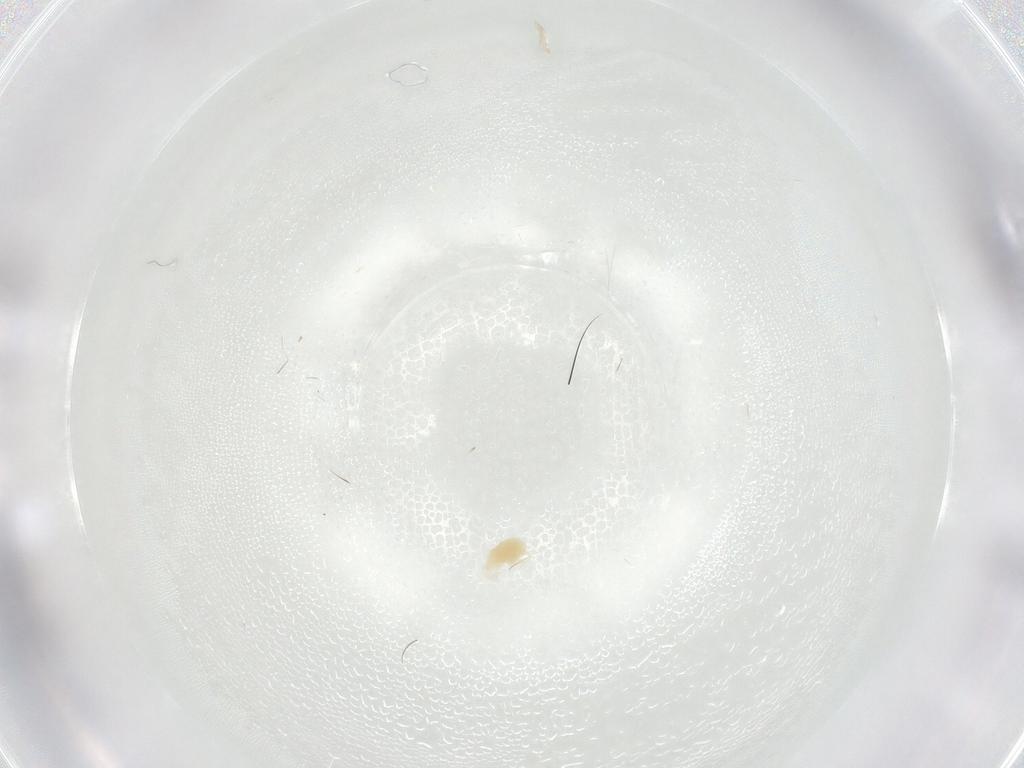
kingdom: Animalia
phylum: Arthropoda
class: Arachnida
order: Trombidiformes
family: Tetranychidae
